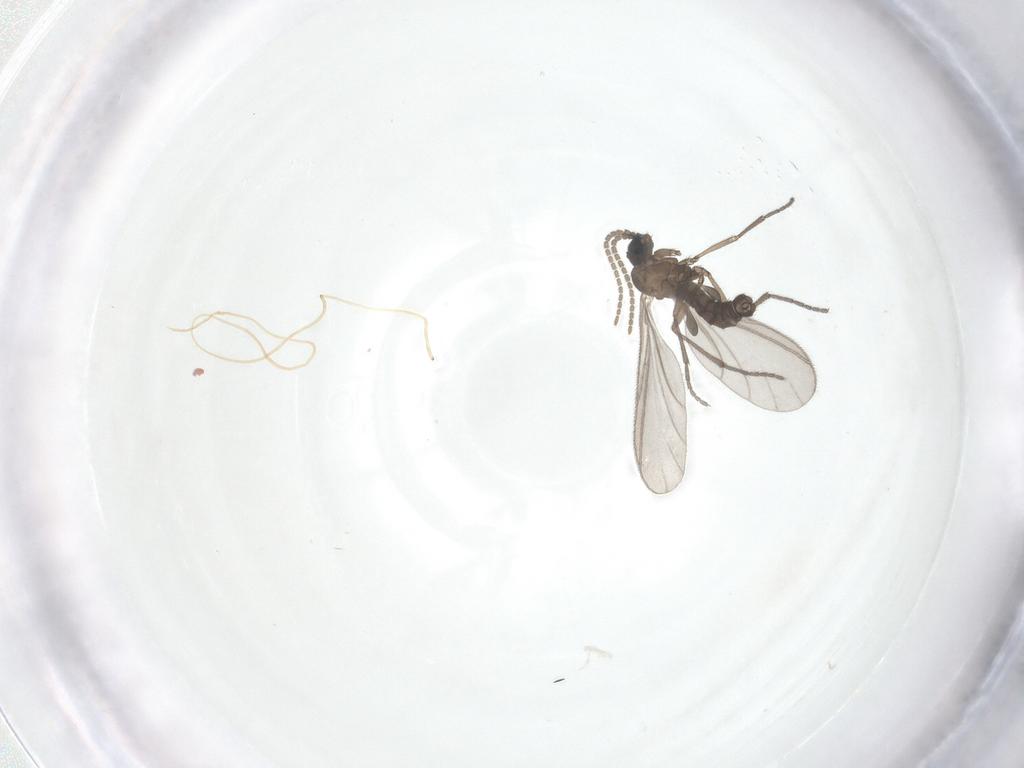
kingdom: Animalia
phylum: Arthropoda
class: Insecta
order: Diptera
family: Sciaridae
